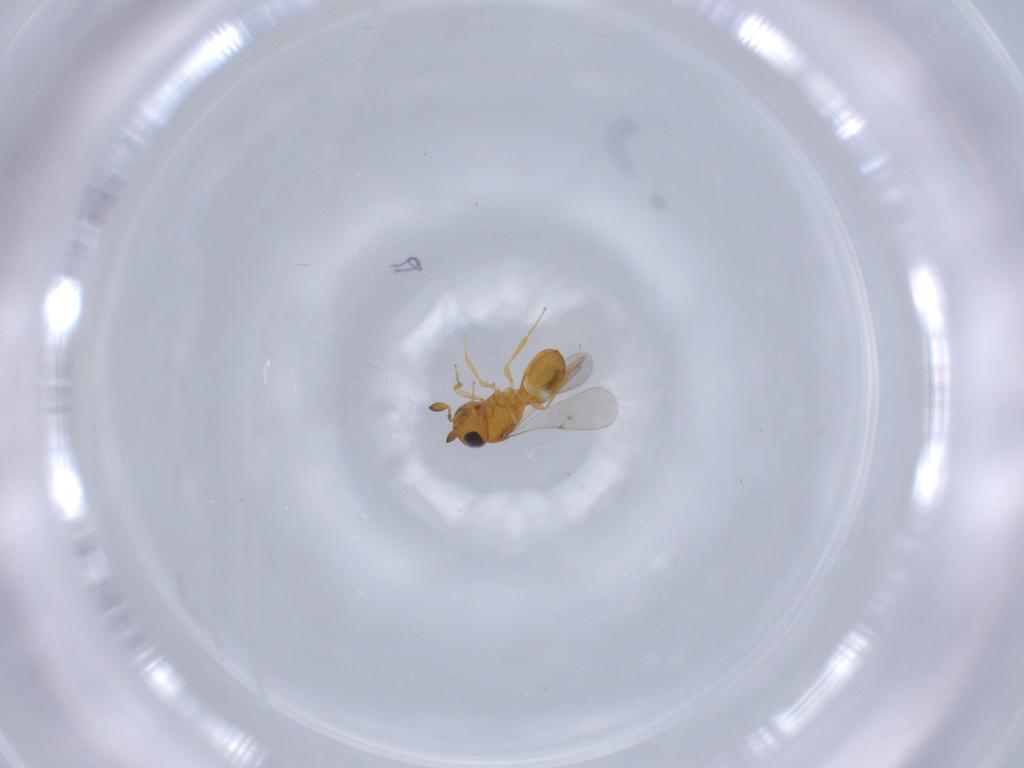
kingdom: Animalia
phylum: Arthropoda
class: Insecta
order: Hymenoptera
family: Scelionidae
